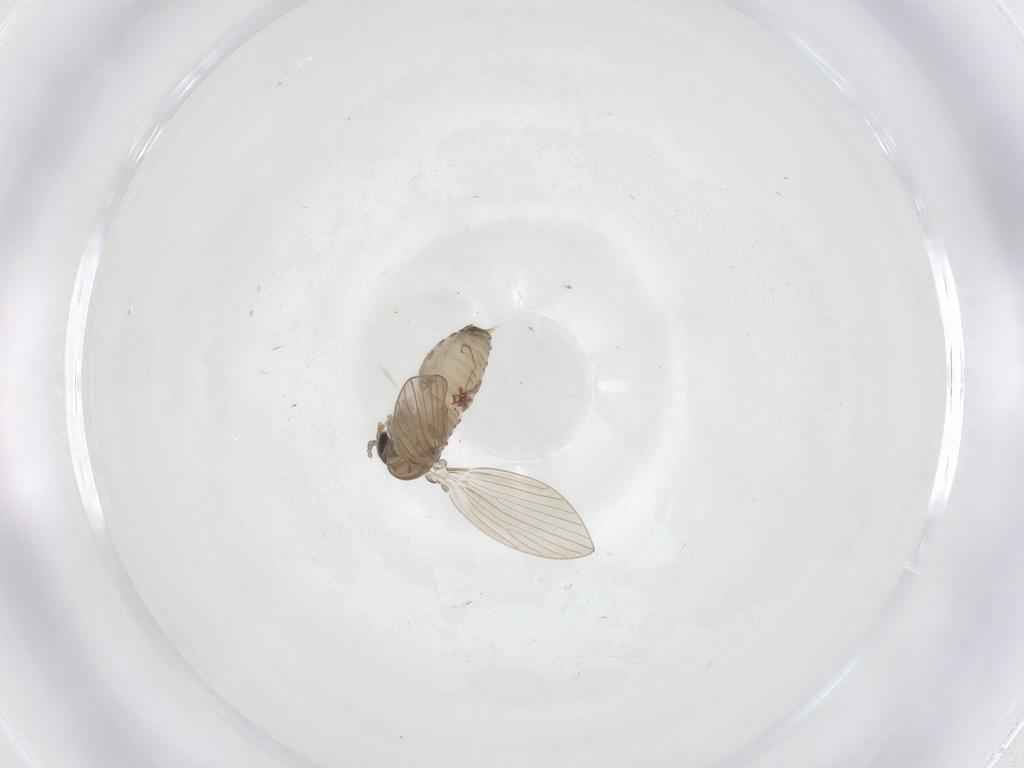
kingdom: Animalia
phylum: Arthropoda
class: Insecta
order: Diptera
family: Psychodidae
